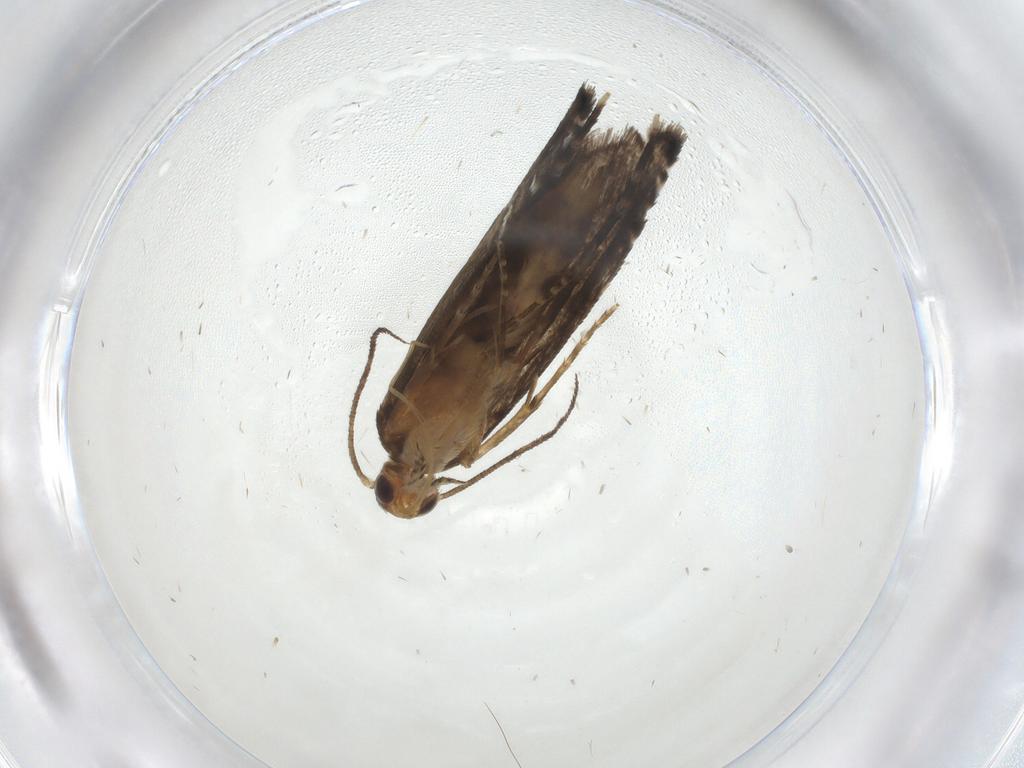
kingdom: Animalia
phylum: Arthropoda
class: Insecta
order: Lepidoptera
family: Glyphipterigidae
